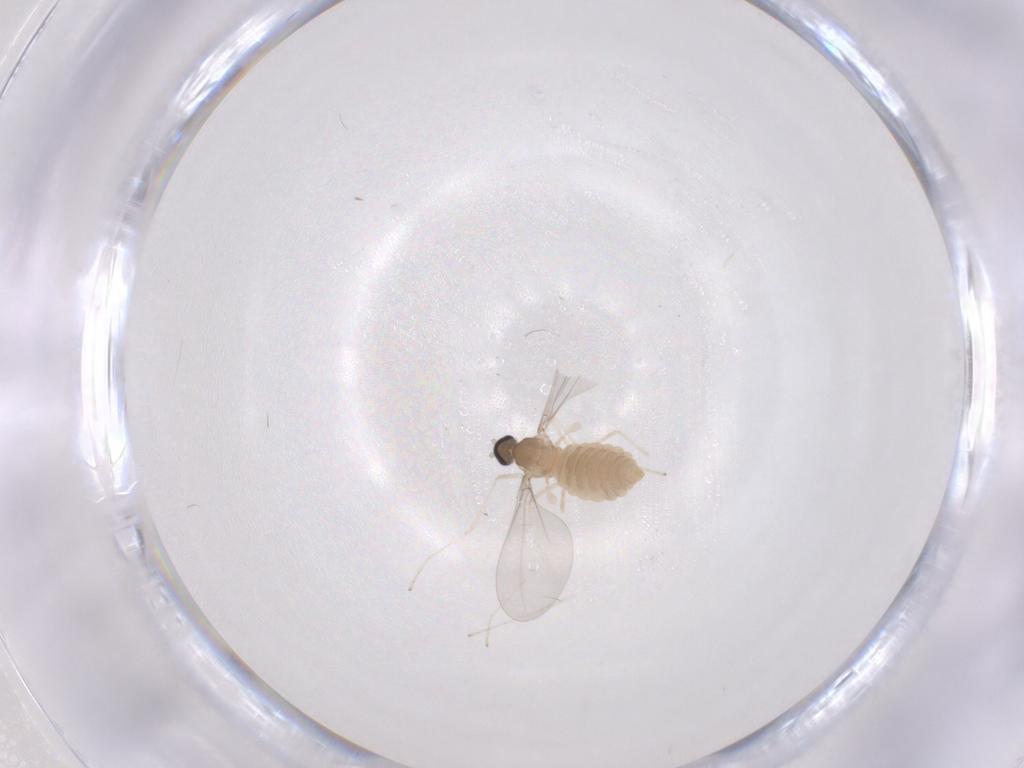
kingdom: Animalia
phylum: Arthropoda
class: Insecta
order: Diptera
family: Cecidomyiidae
